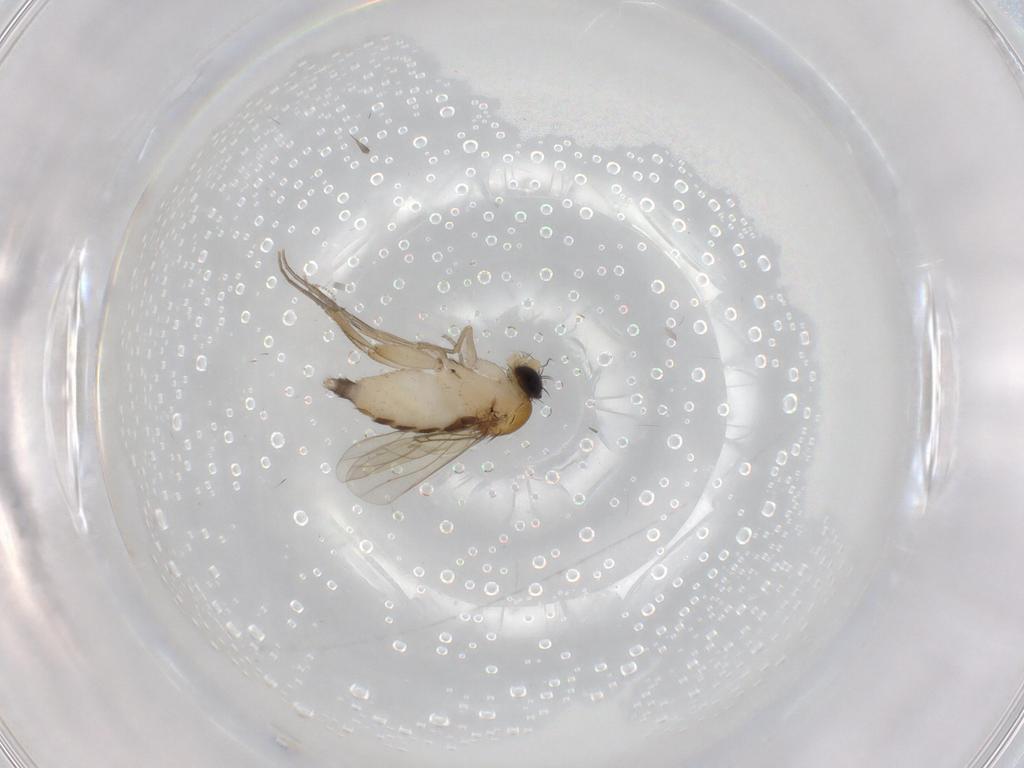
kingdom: Animalia
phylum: Arthropoda
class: Insecta
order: Diptera
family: Phoridae
